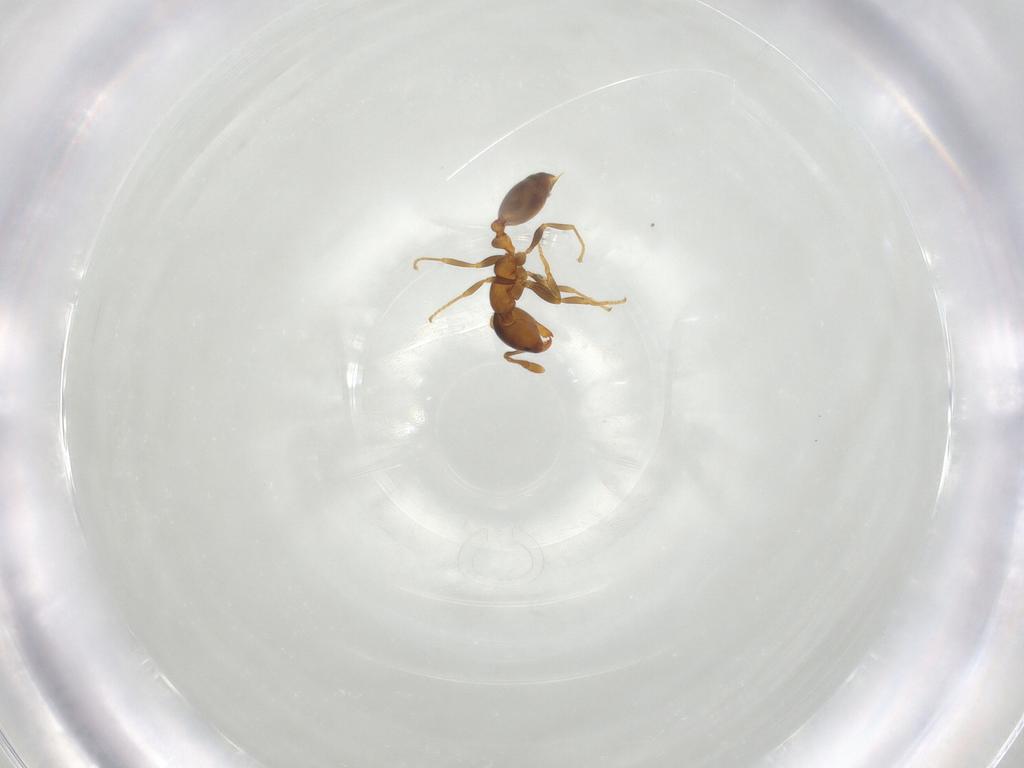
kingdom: Animalia
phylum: Arthropoda
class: Insecta
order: Hymenoptera
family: Formicidae
